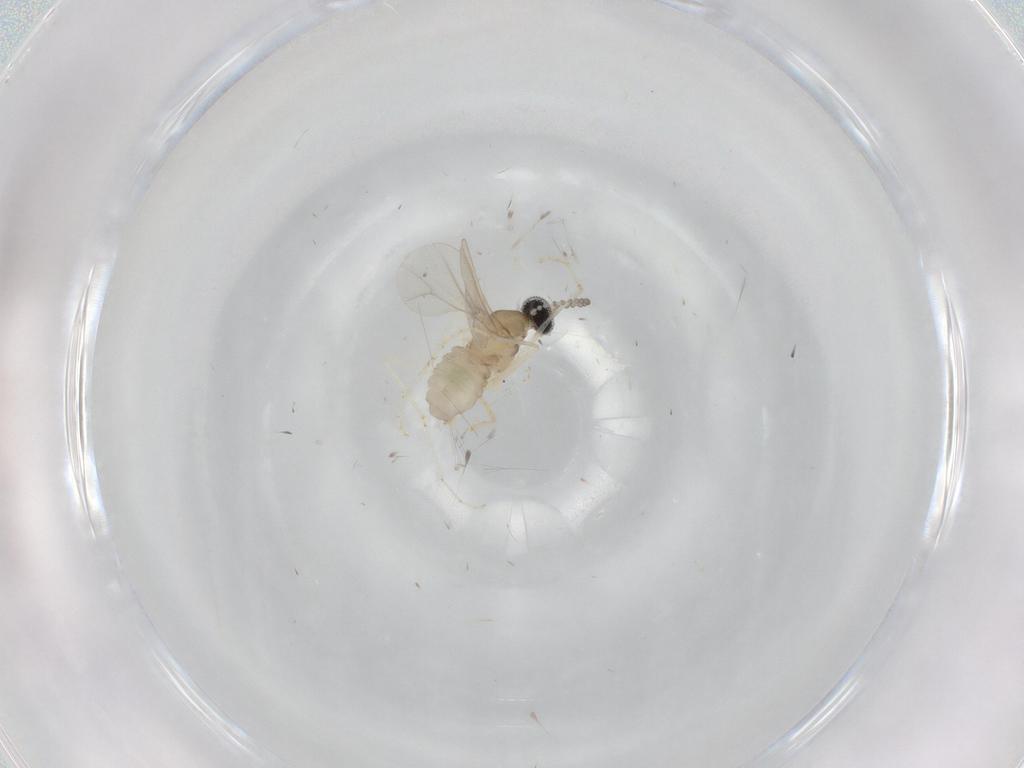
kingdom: Animalia
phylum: Arthropoda
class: Insecta
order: Diptera
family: Cecidomyiidae
